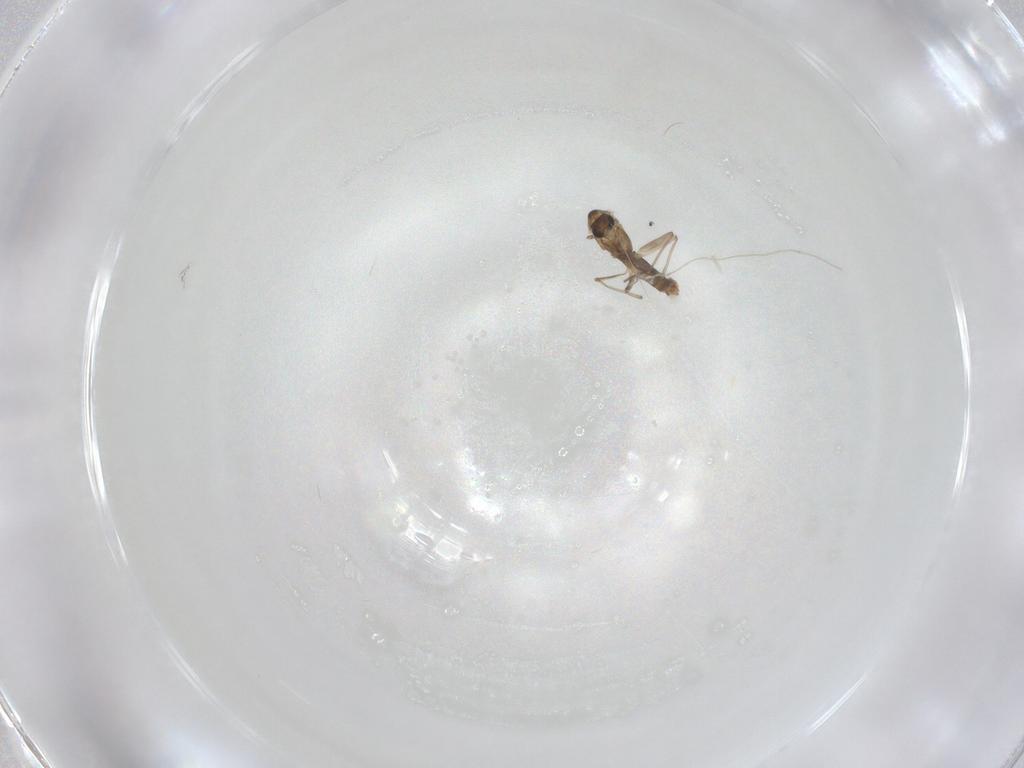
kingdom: Animalia
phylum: Arthropoda
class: Insecta
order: Diptera
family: Chironomidae
